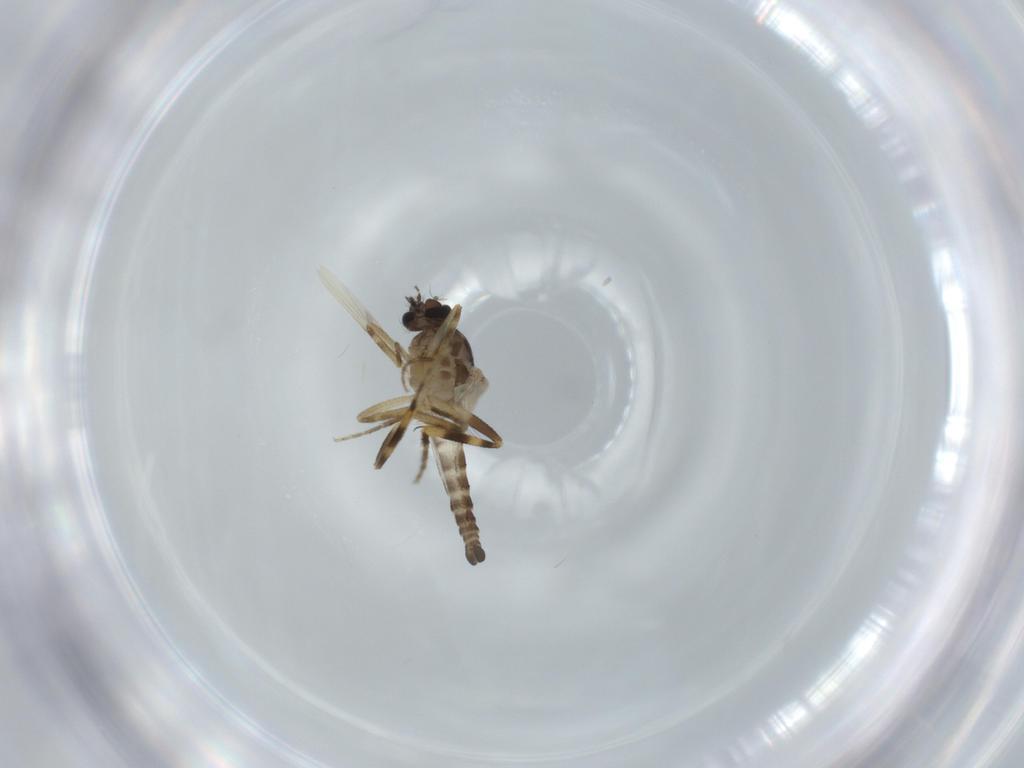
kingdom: Animalia
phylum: Arthropoda
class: Insecta
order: Diptera
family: Ceratopogonidae
